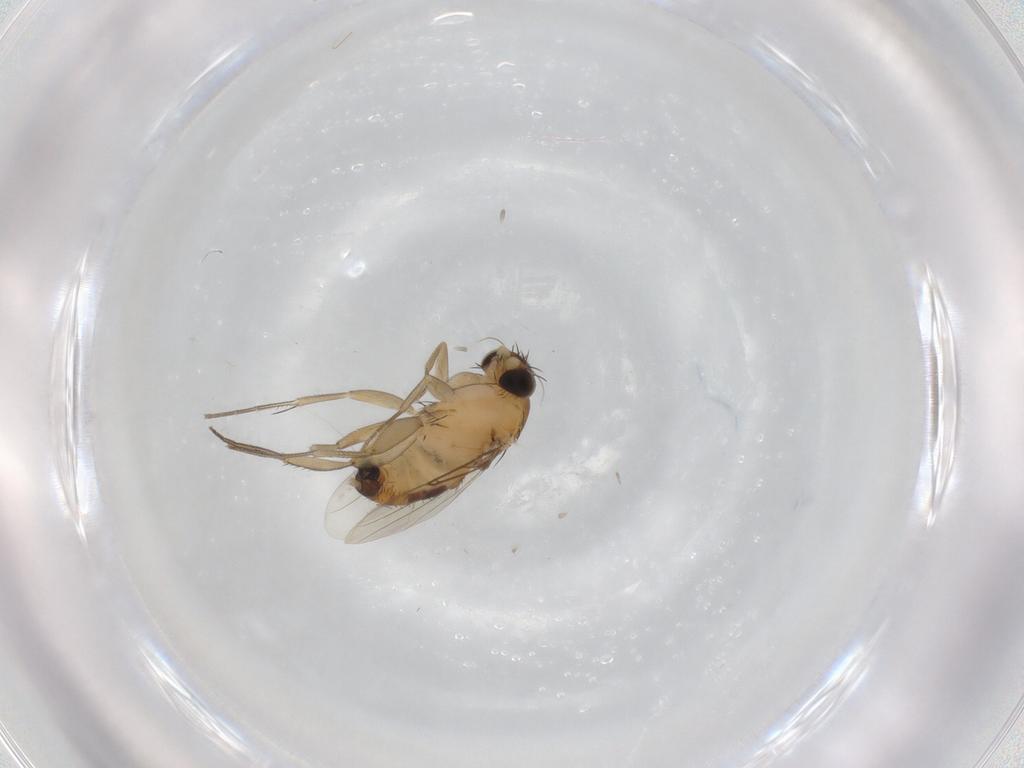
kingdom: Animalia
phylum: Arthropoda
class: Insecta
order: Diptera
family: Phoridae
